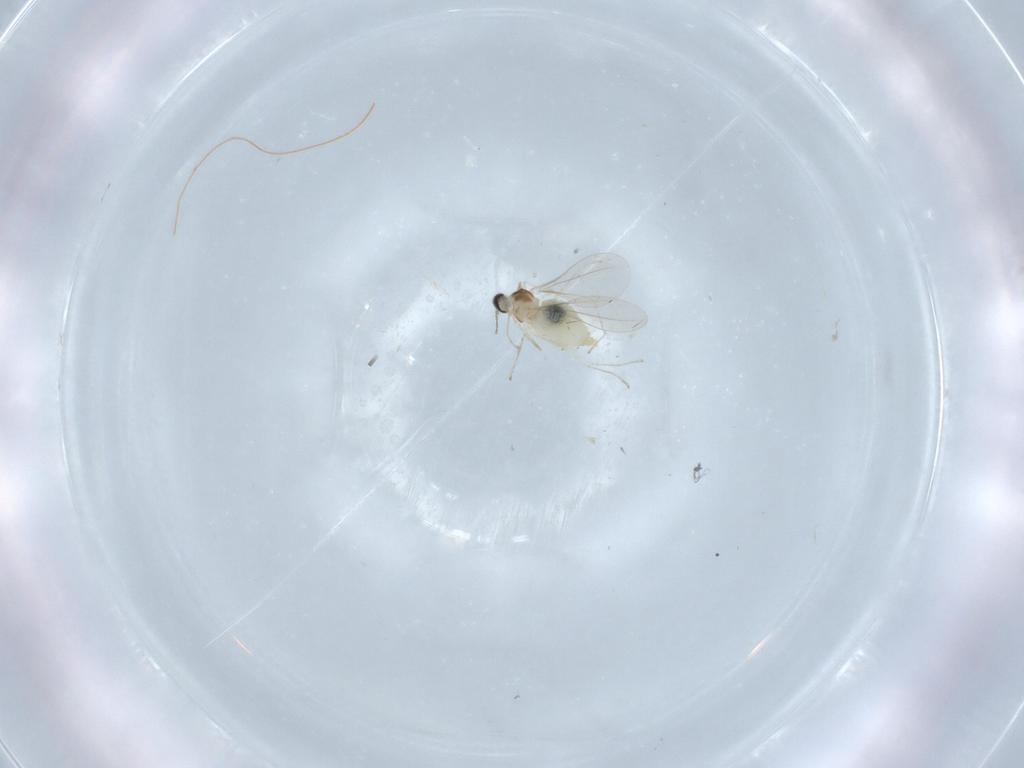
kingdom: Animalia
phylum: Arthropoda
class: Insecta
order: Diptera
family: Cecidomyiidae
